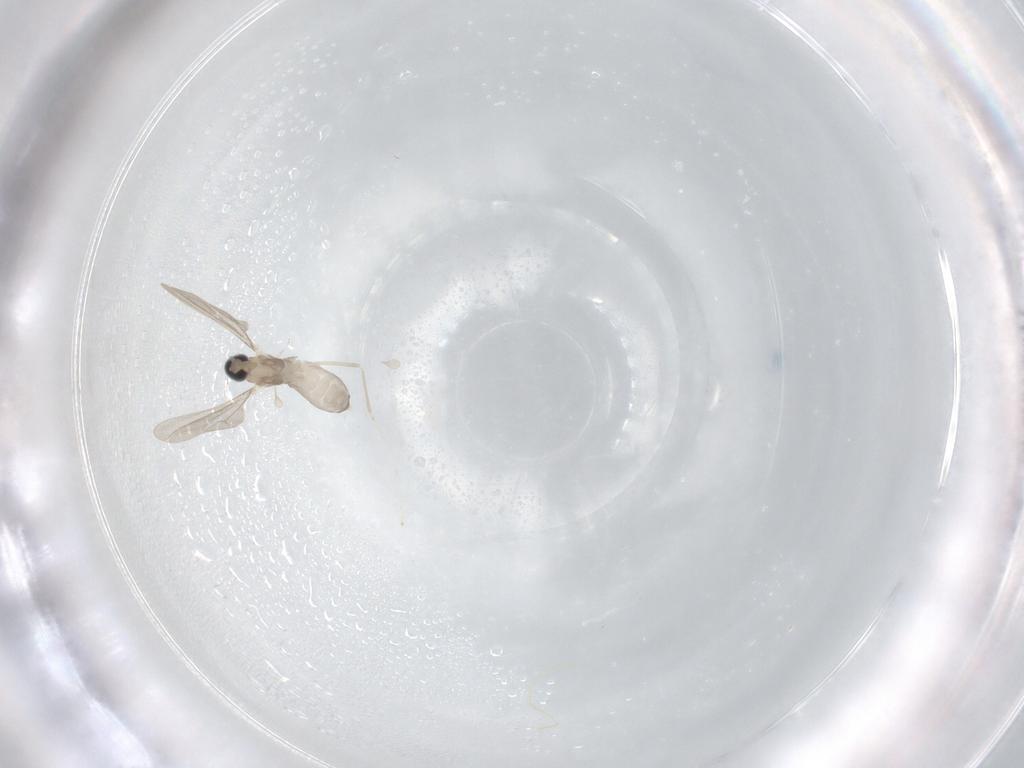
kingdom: Animalia
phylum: Arthropoda
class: Insecta
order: Diptera
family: Cecidomyiidae
